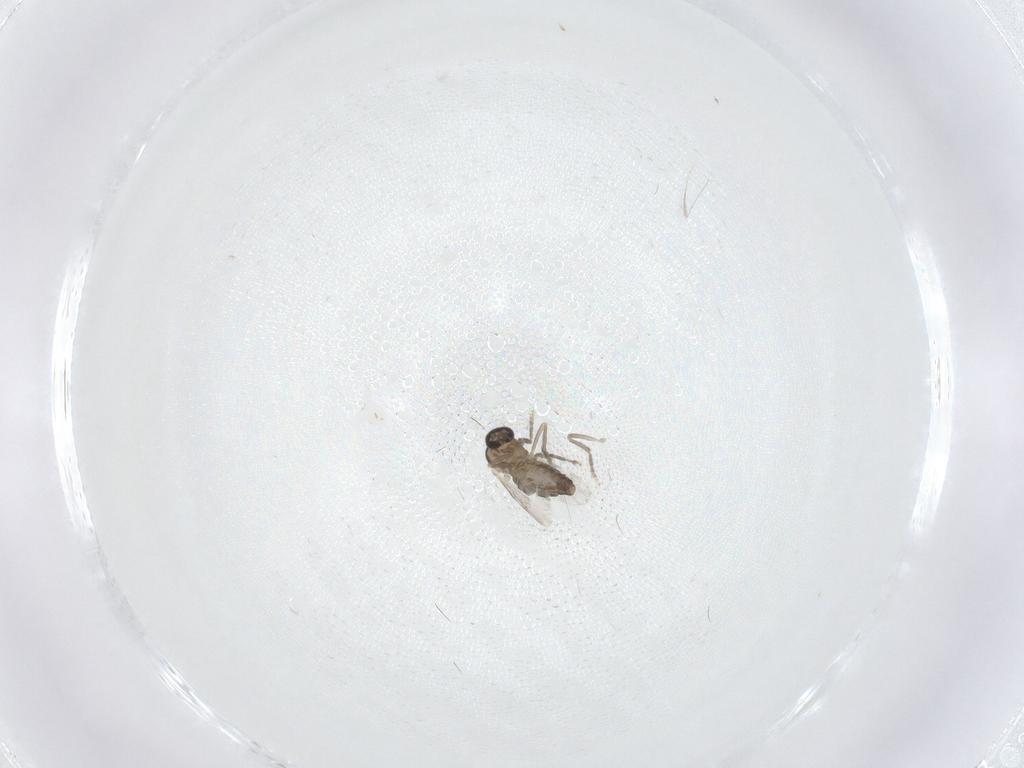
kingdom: Animalia
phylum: Arthropoda
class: Insecta
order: Diptera
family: Ceratopogonidae
